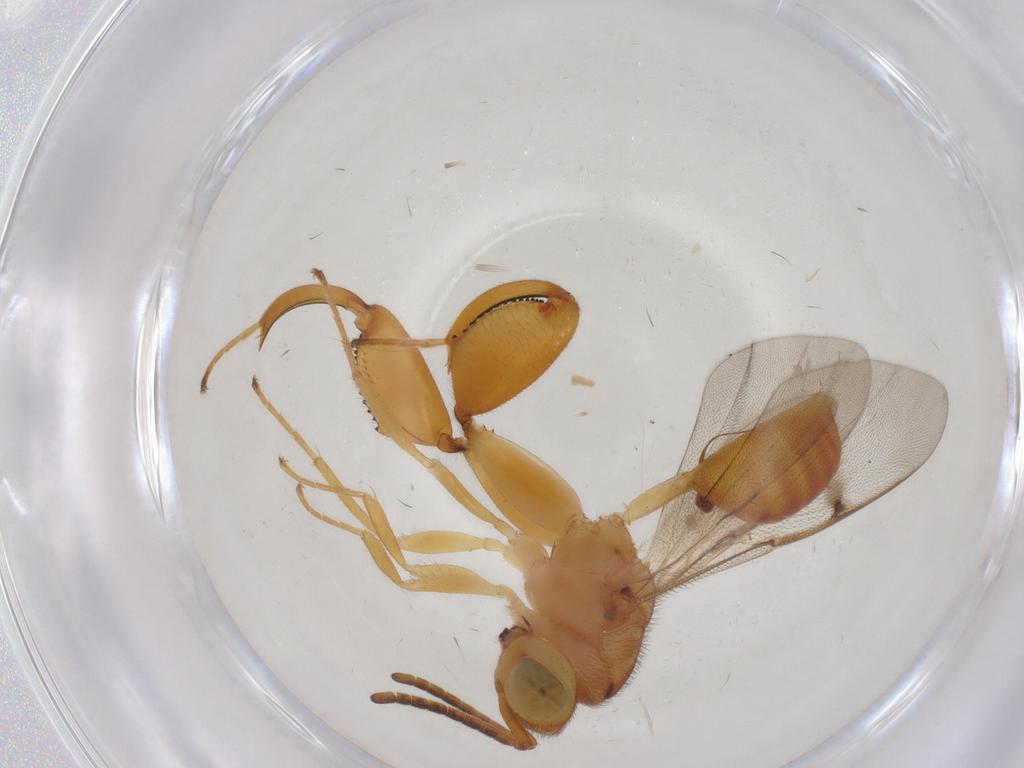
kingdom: Animalia
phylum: Arthropoda
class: Insecta
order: Hymenoptera
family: Chalcididae
